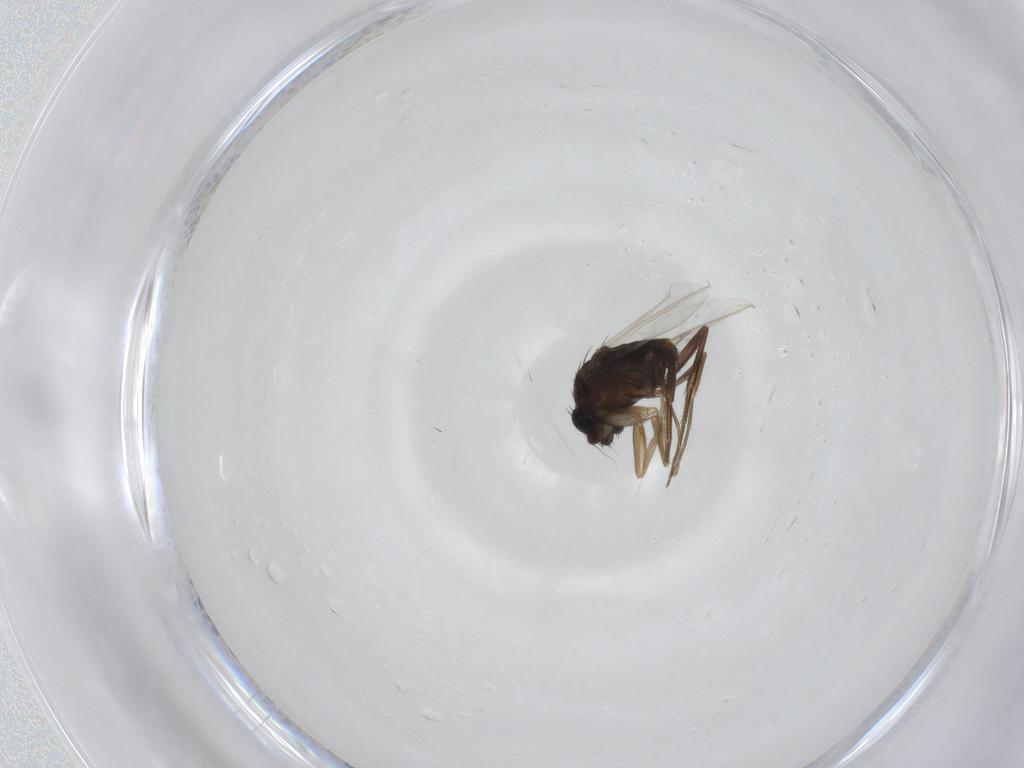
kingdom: Animalia
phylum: Arthropoda
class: Insecta
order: Diptera
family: Phoridae
